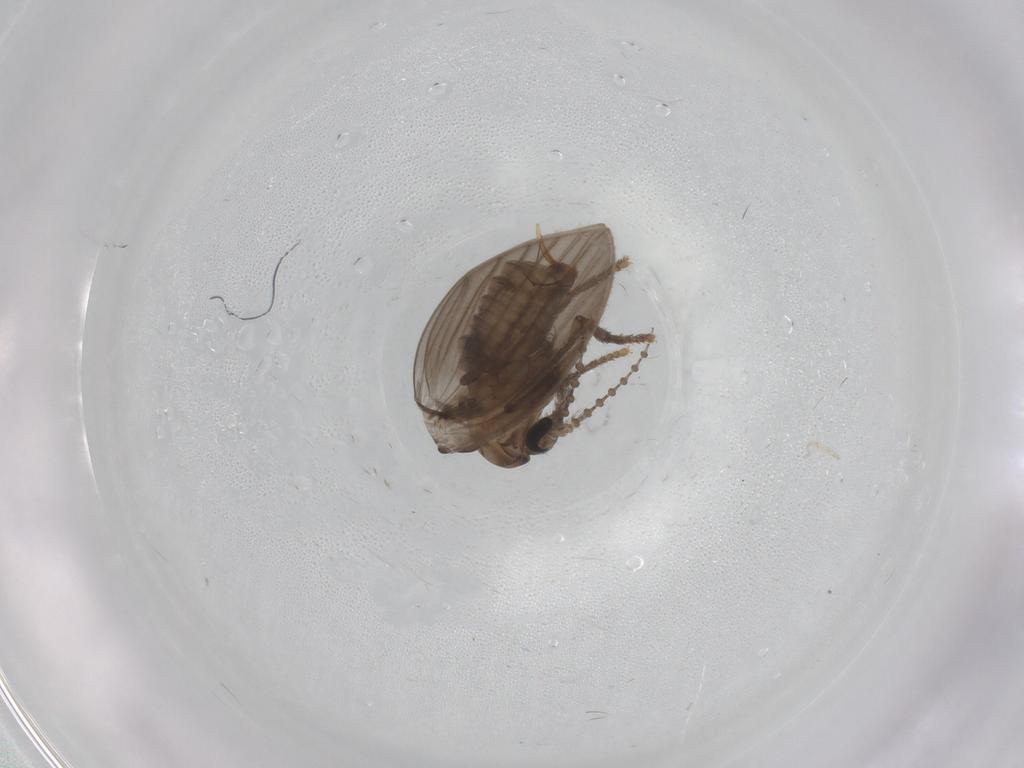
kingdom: Animalia
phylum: Arthropoda
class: Insecta
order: Diptera
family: Psychodidae
